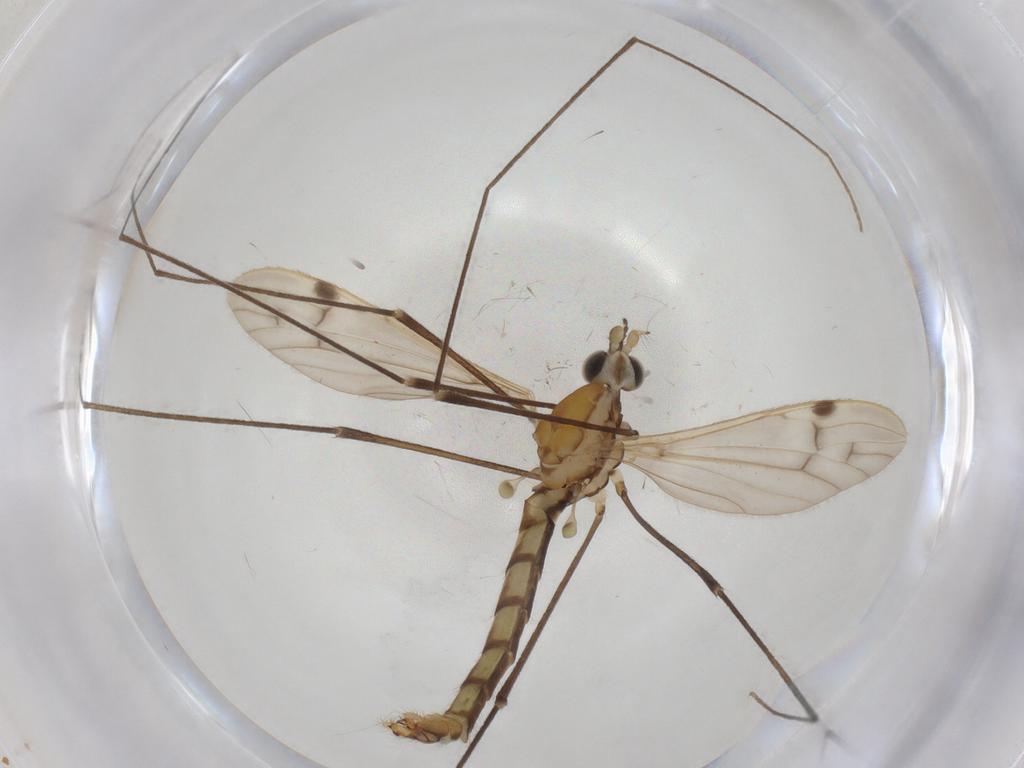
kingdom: Animalia
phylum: Arthropoda
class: Insecta
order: Diptera
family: Limoniidae
